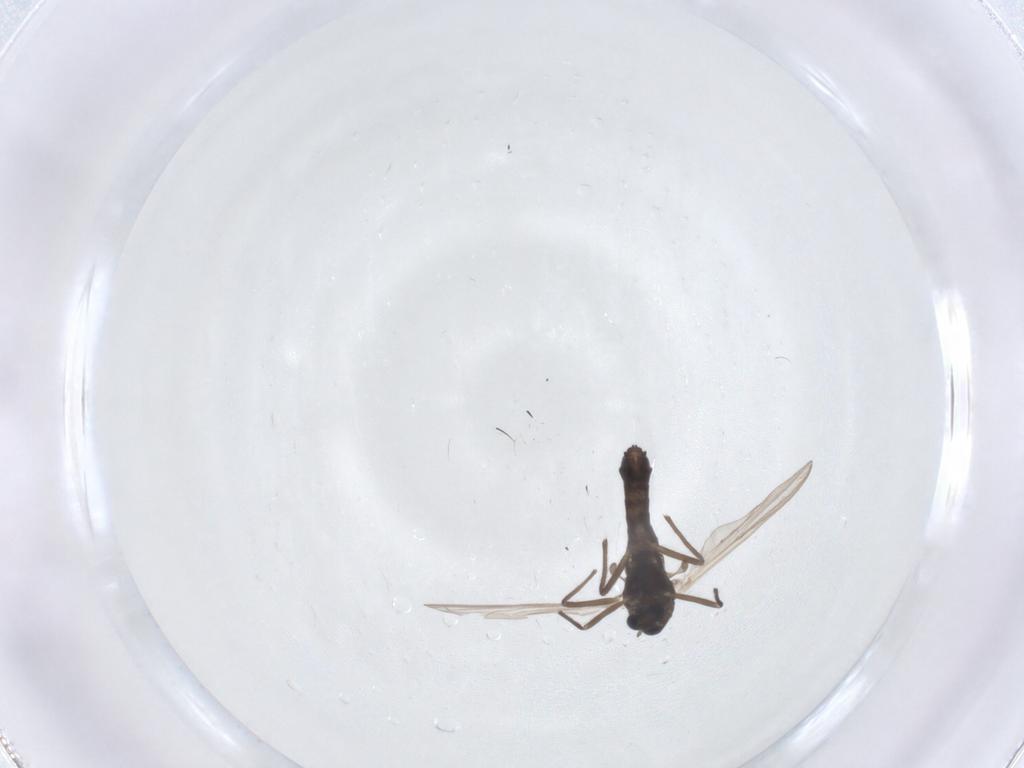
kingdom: Animalia
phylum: Arthropoda
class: Insecta
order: Diptera
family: Chironomidae
